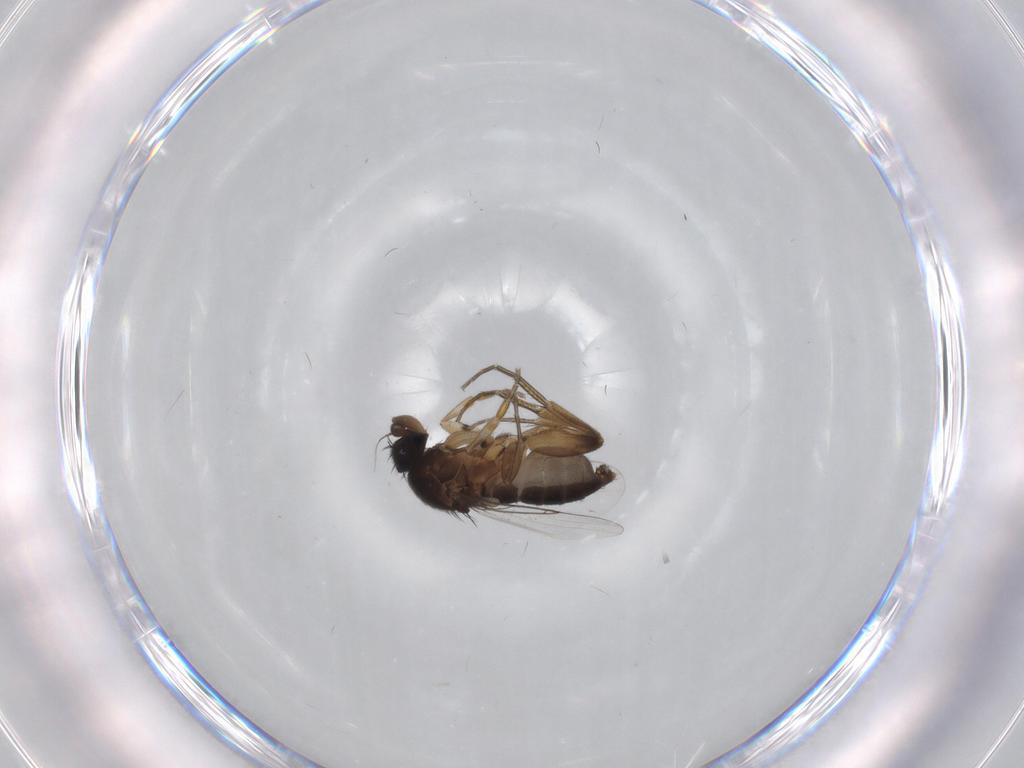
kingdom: Animalia
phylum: Arthropoda
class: Insecta
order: Diptera
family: Phoridae
